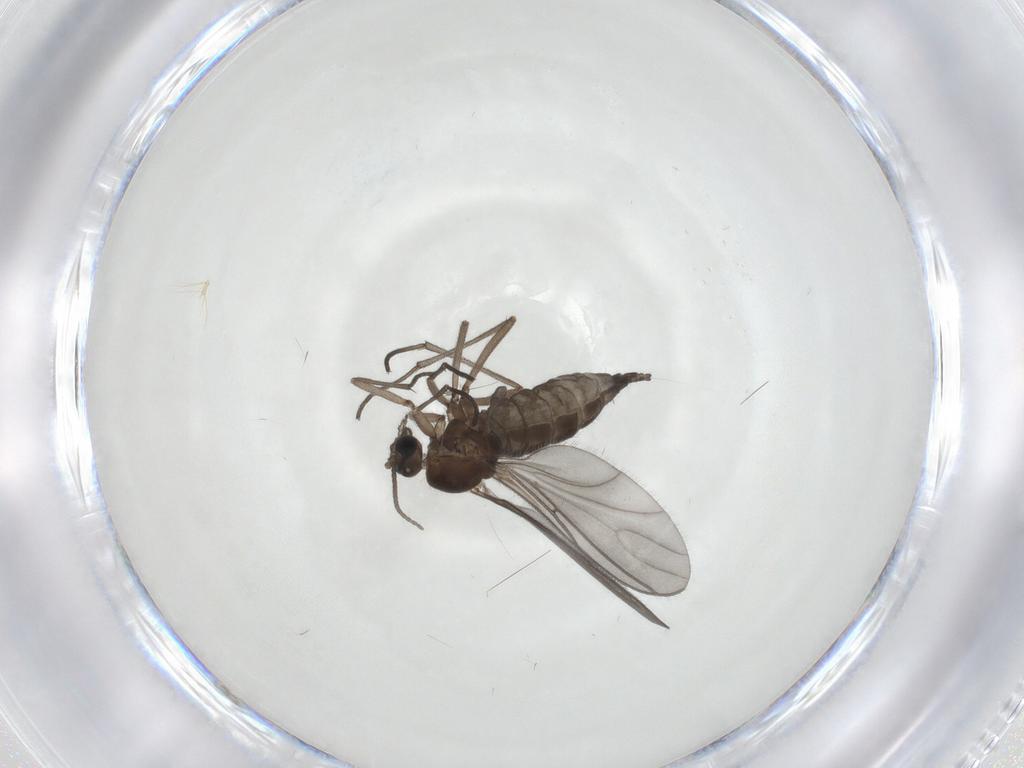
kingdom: Animalia
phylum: Arthropoda
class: Insecta
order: Diptera
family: Sciaridae
